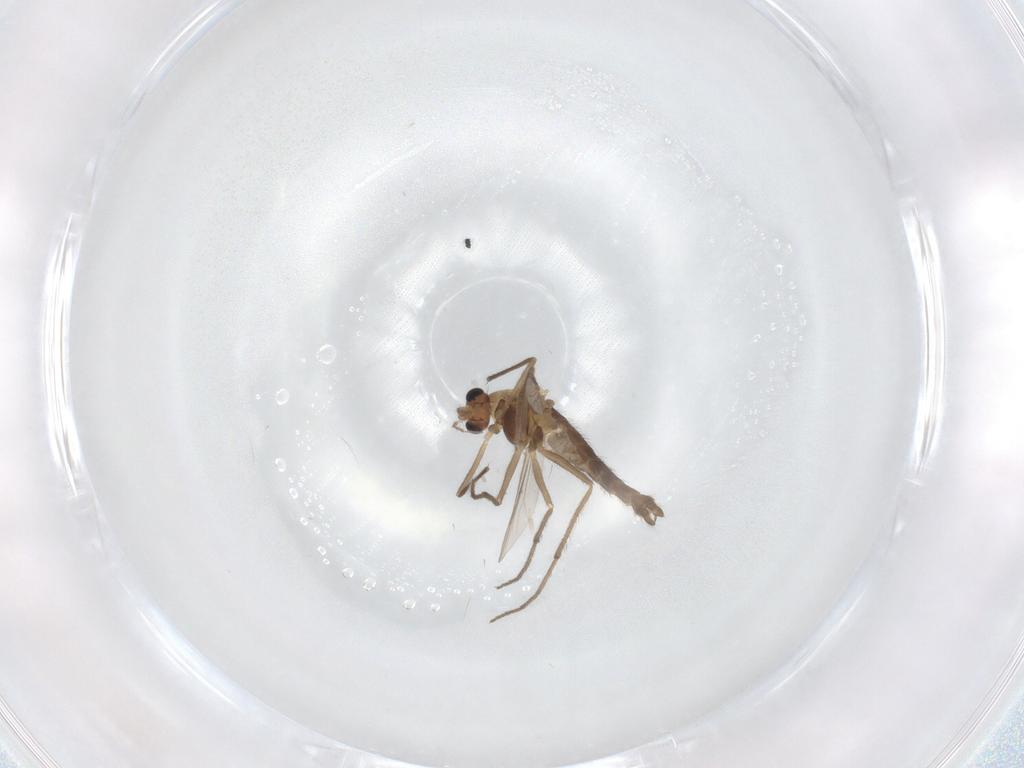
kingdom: Animalia
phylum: Arthropoda
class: Insecta
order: Diptera
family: Chironomidae
